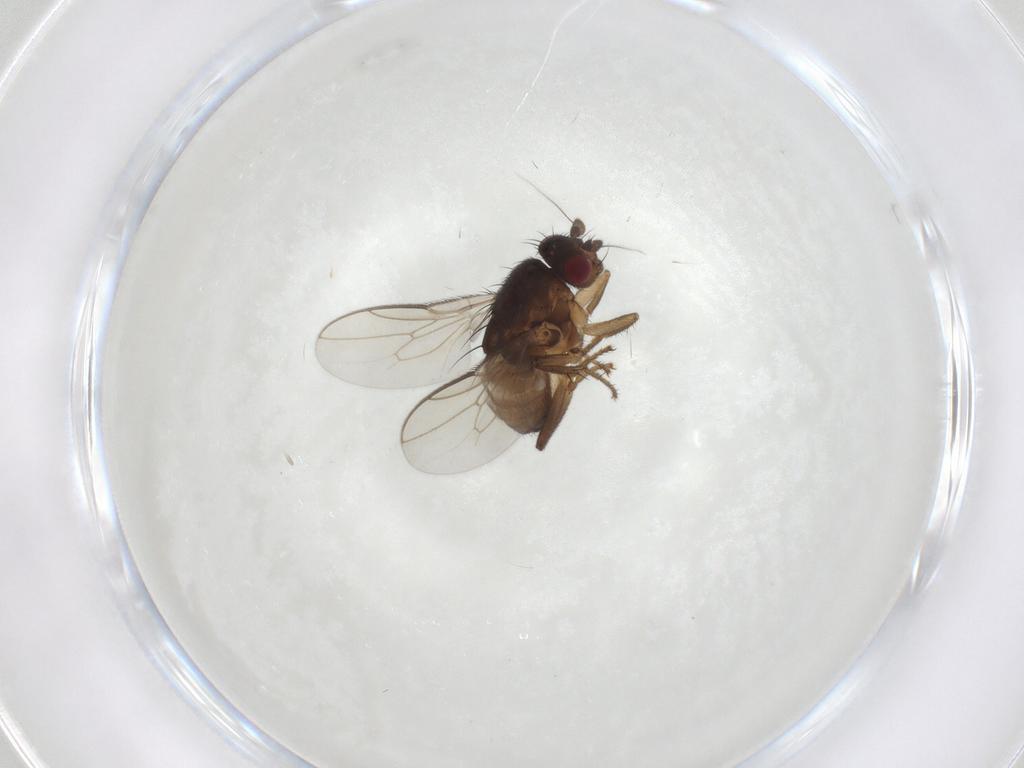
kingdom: Animalia
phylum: Arthropoda
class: Insecta
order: Diptera
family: Sphaeroceridae
